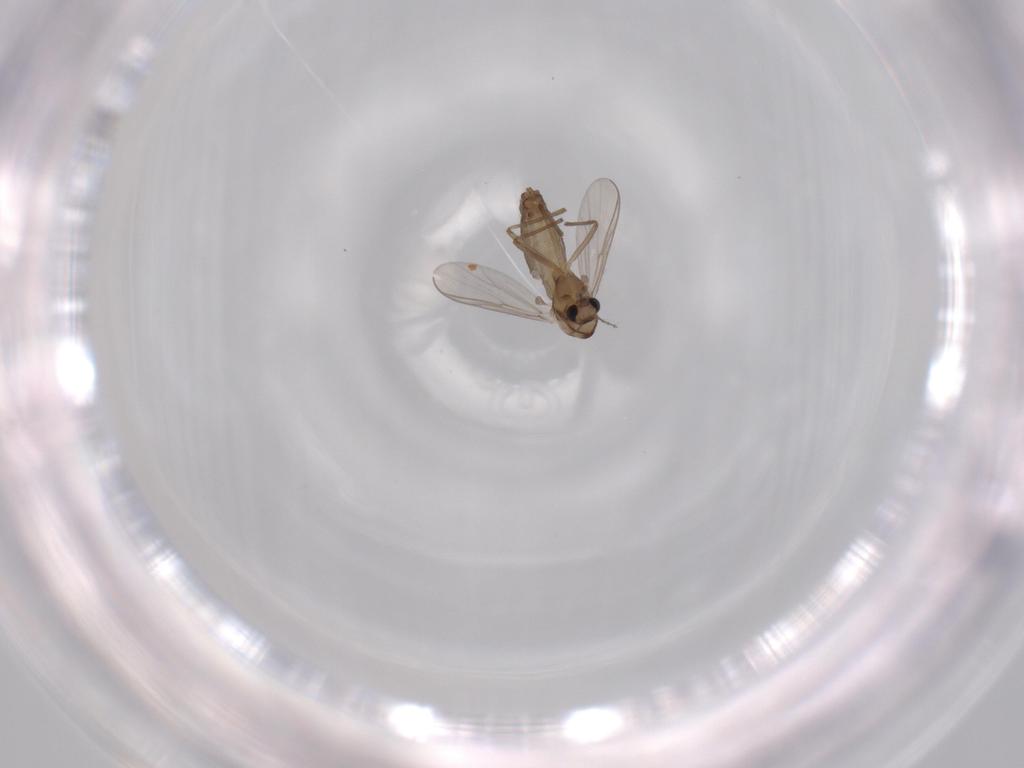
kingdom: Animalia
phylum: Arthropoda
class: Insecta
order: Diptera
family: Chironomidae
